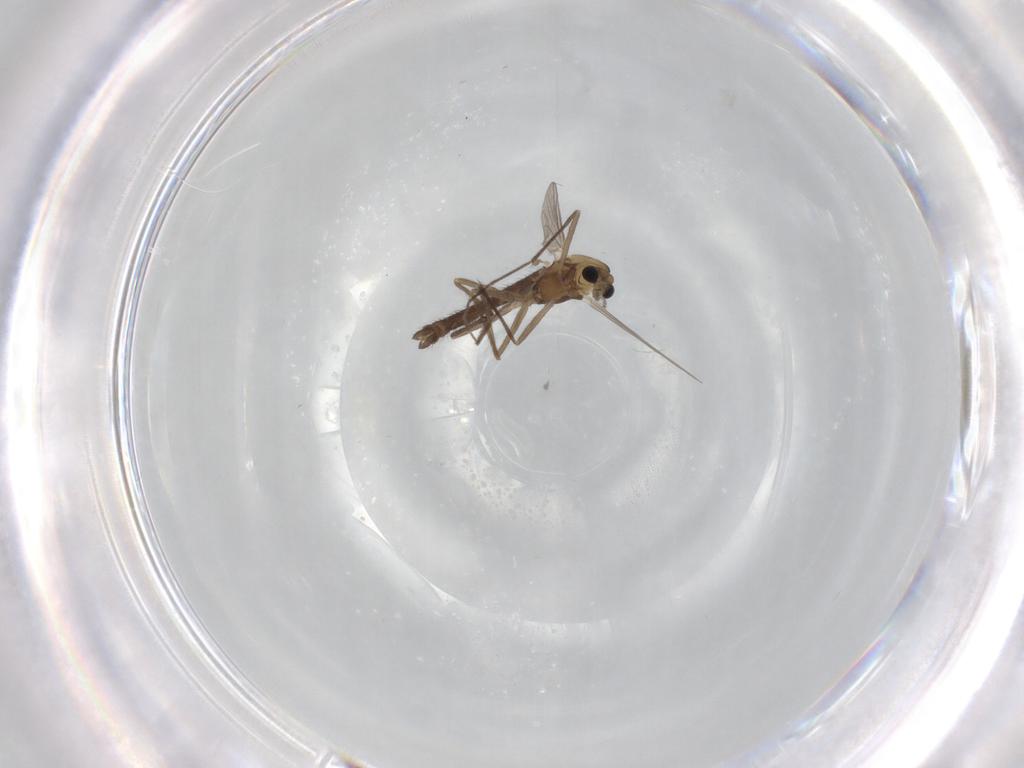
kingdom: Animalia
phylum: Arthropoda
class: Insecta
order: Diptera
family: Chironomidae
